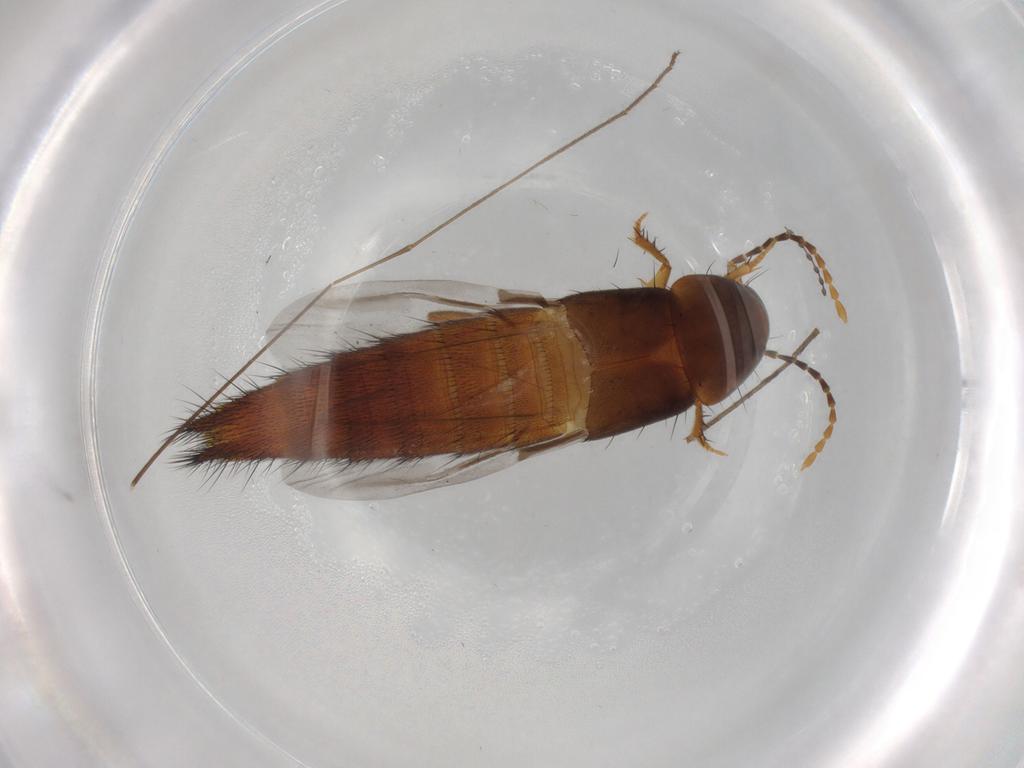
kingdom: Animalia
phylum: Arthropoda
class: Insecta
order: Coleoptera
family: Staphylinidae
